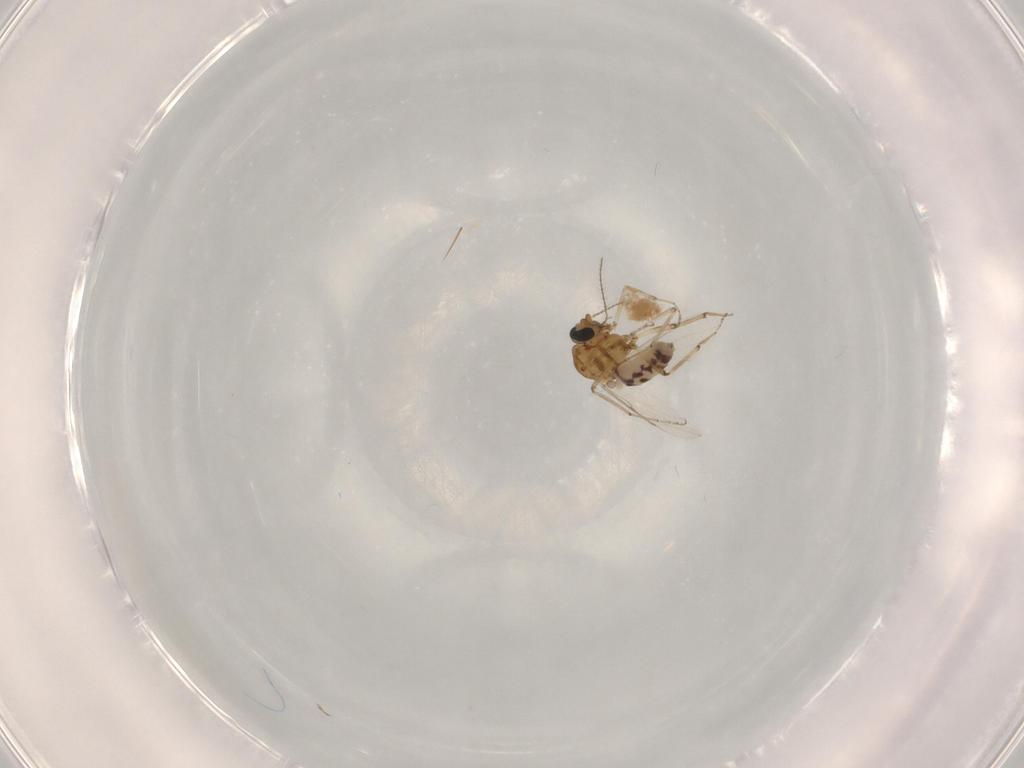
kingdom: Animalia
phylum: Arthropoda
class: Insecta
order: Diptera
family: Ceratopogonidae
